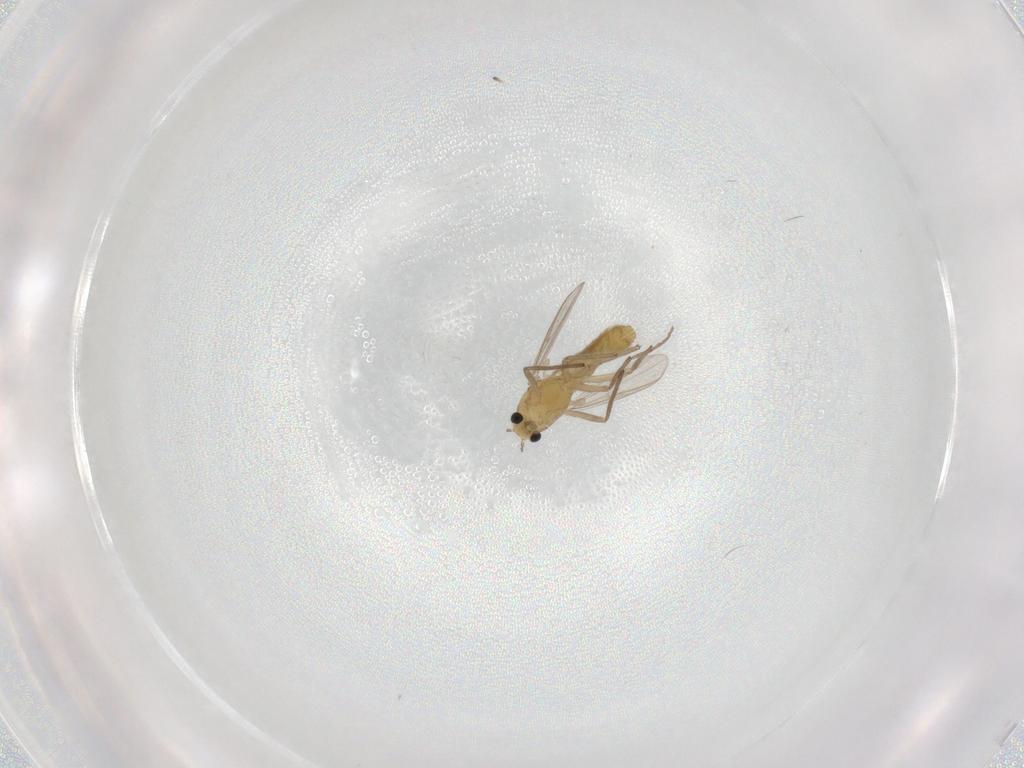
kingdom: Animalia
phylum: Arthropoda
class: Insecta
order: Diptera
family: Chironomidae
